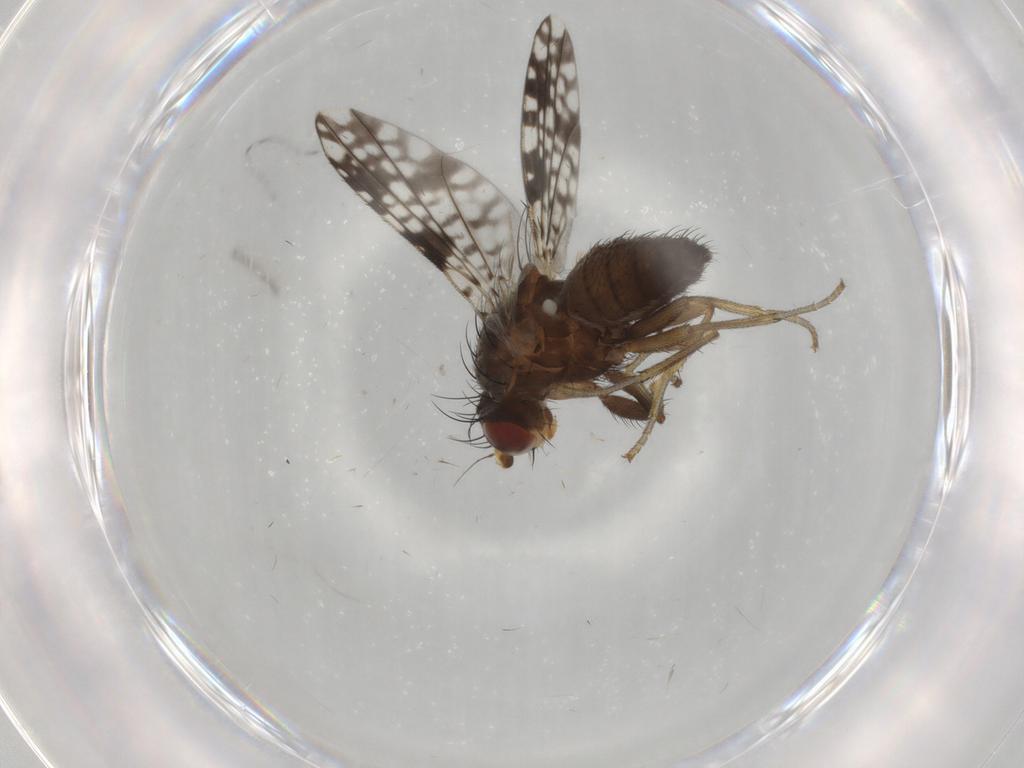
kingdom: Animalia
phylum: Arthropoda
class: Insecta
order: Diptera
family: Tephritidae
